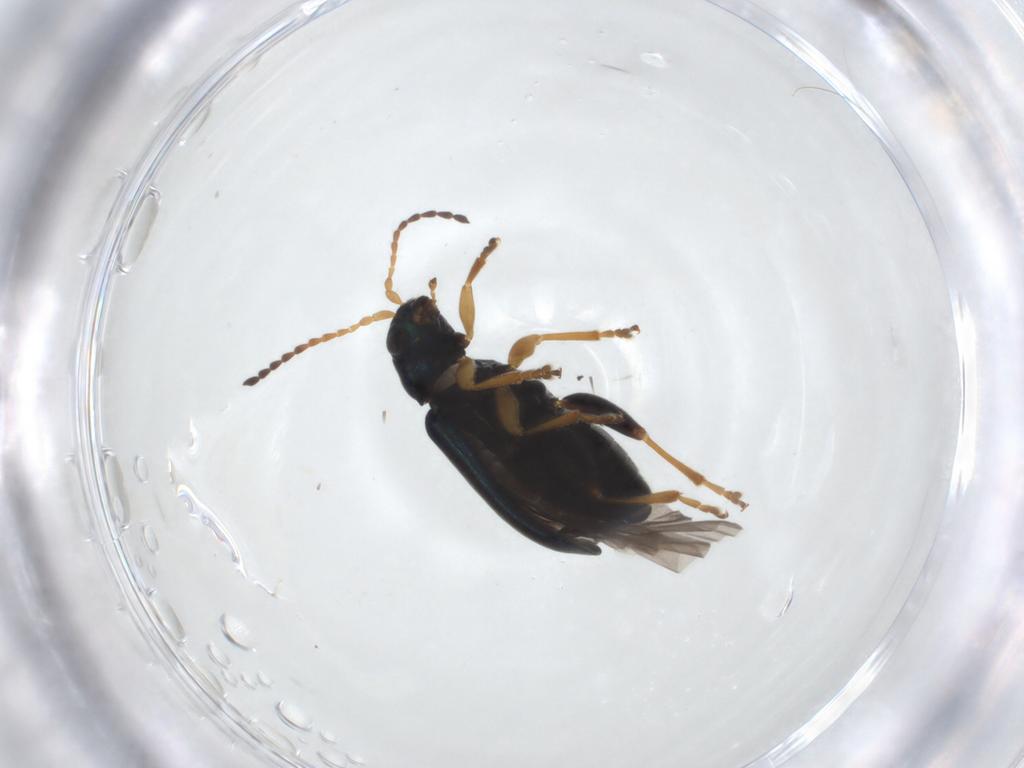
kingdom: Animalia
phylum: Arthropoda
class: Insecta
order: Coleoptera
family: Chrysomelidae
